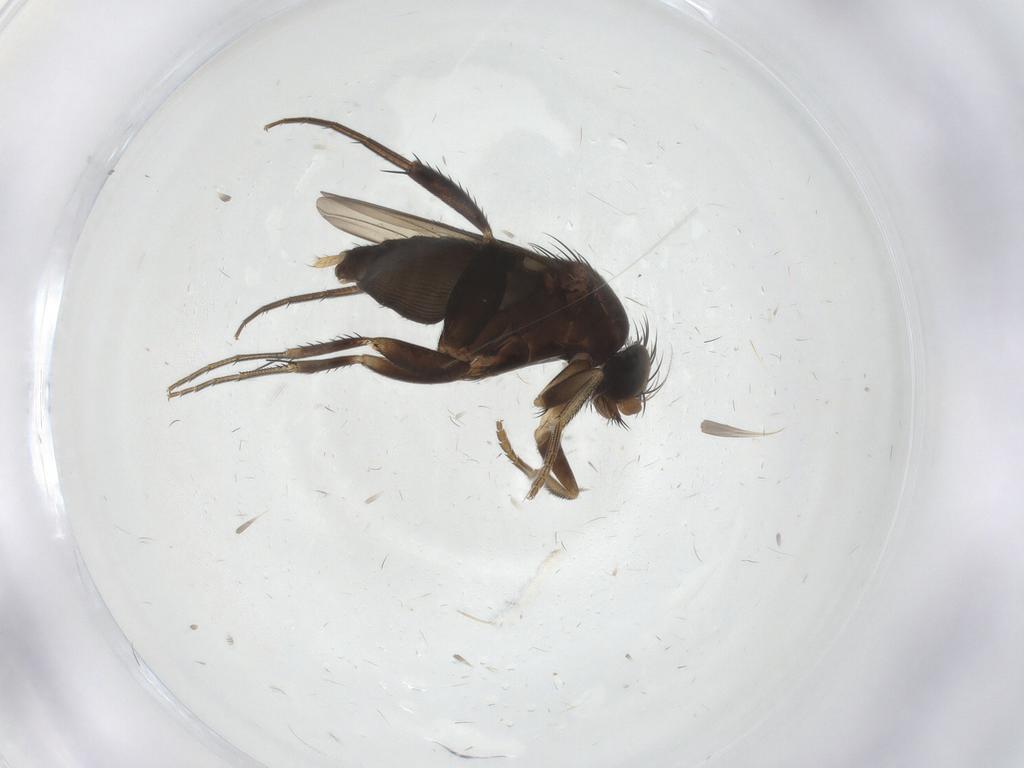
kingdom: Animalia
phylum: Arthropoda
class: Insecta
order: Diptera
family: Phoridae
